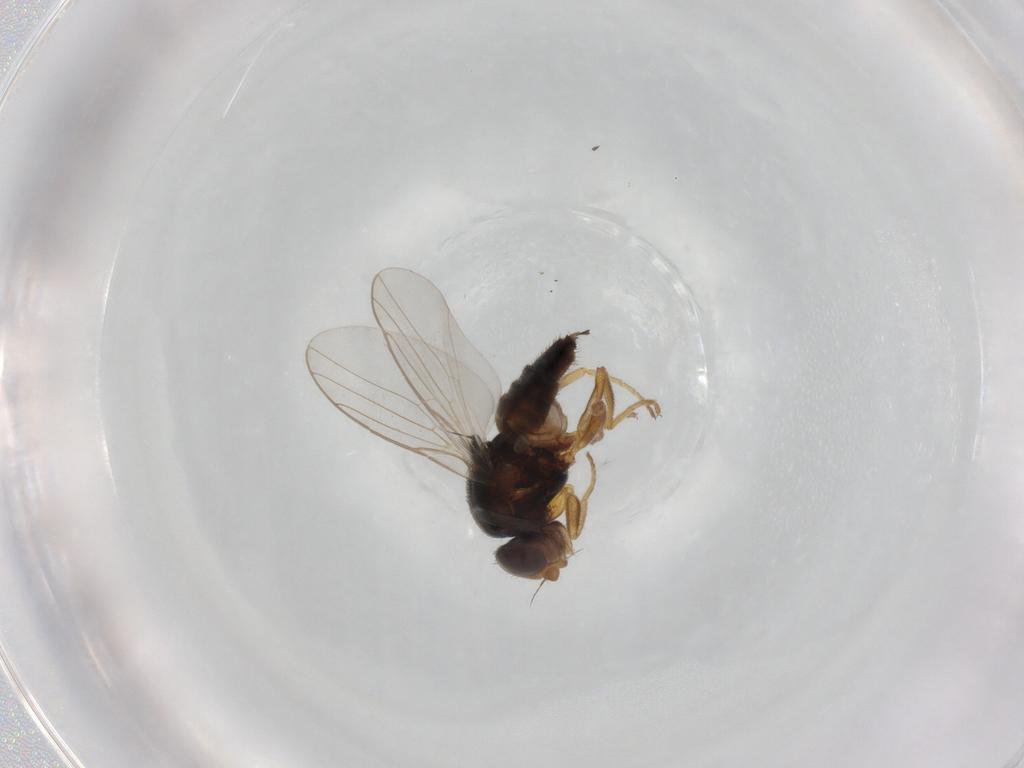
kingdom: Animalia
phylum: Arthropoda
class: Insecta
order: Diptera
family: Chloropidae
